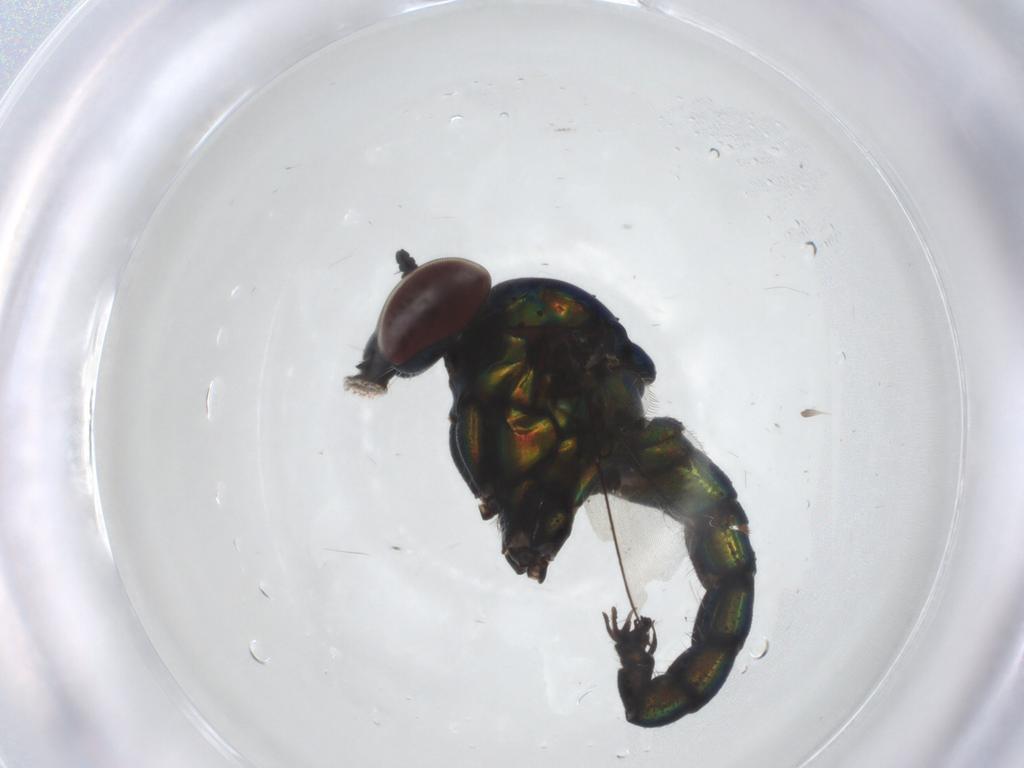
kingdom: Animalia
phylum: Arthropoda
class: Insecta
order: Diptera
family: Dolichopodidae
